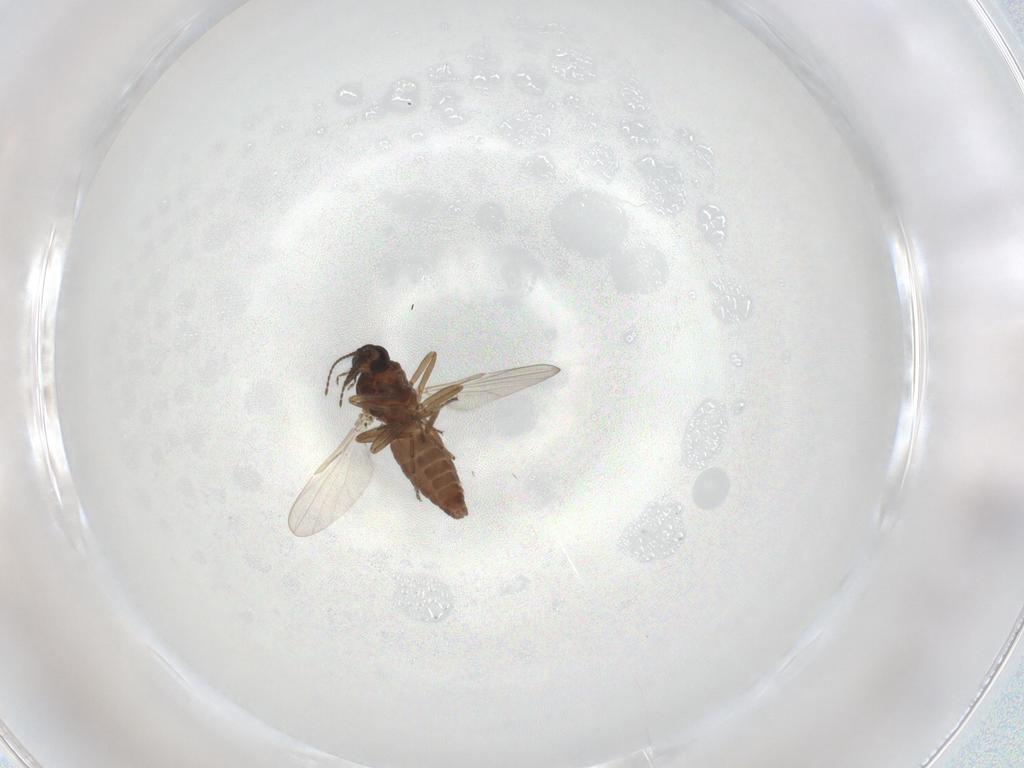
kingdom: Animalia
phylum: Arthropoda
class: Insecta
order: Diptera
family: Ceratopogonidae
